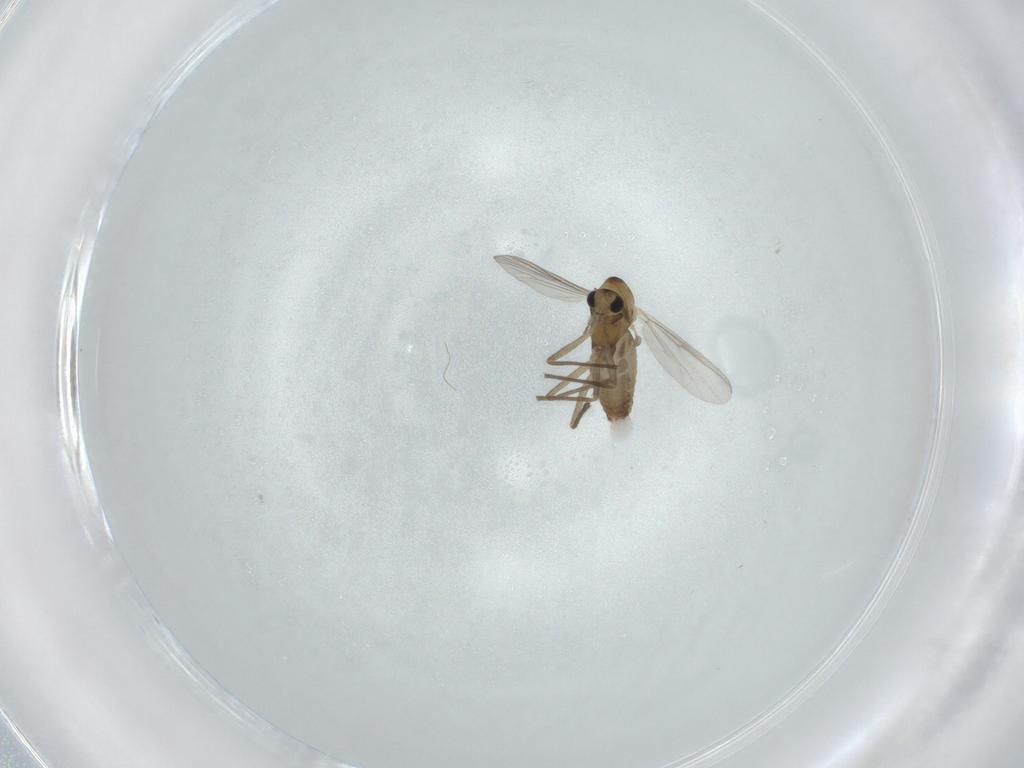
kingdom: Animalia
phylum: Arthropoda
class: Insecta
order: Diptera
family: Chironomidae
